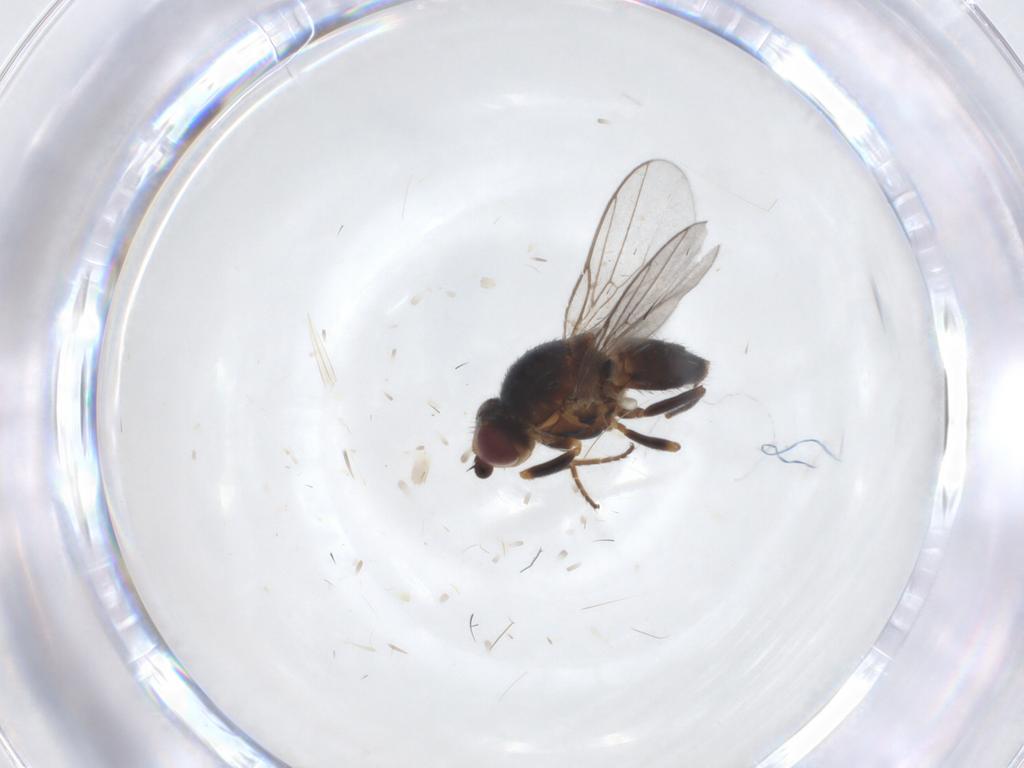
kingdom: Animalia
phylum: Arthropoda
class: Insecta
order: Diptera
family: Chloropidae
